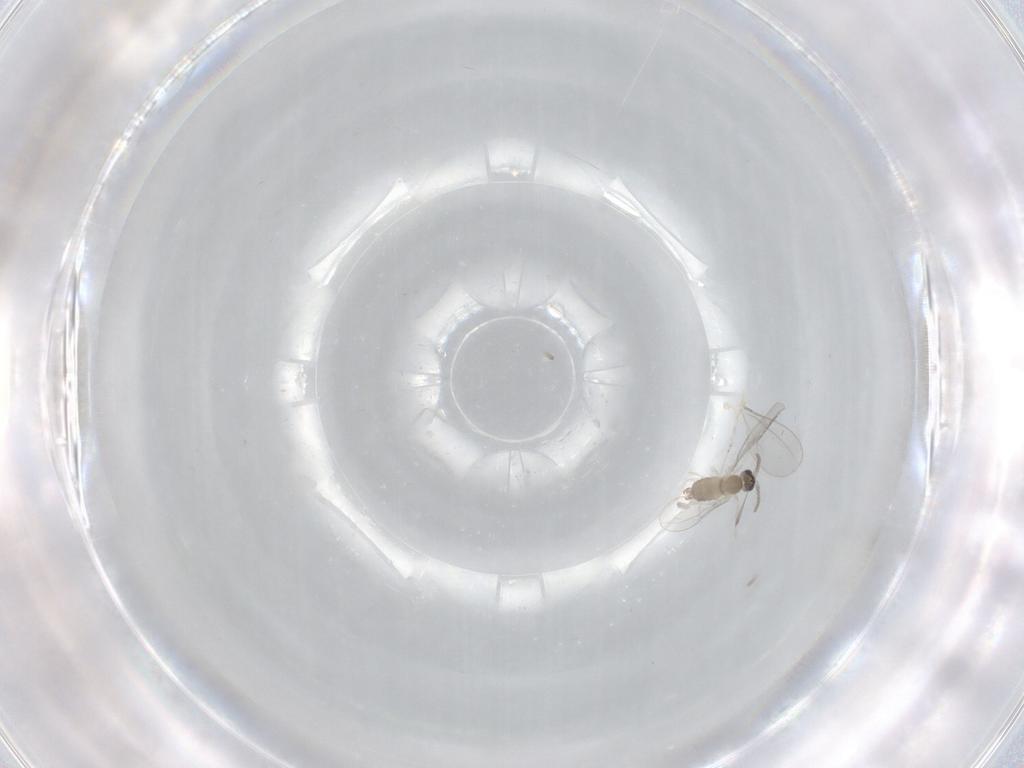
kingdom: Animalia
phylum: Arthropoda
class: Insecta
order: Diptera
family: Cecidomyiidae
